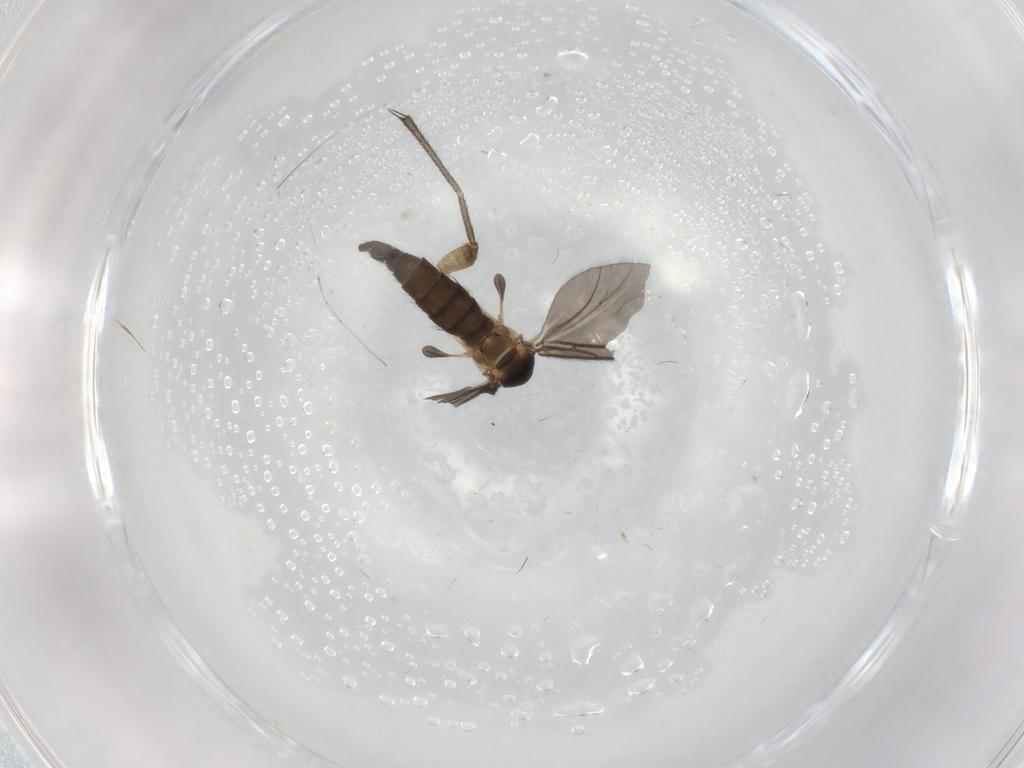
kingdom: Animalia
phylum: Arthropoda
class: Insecta
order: Diptera
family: Sciaridae
